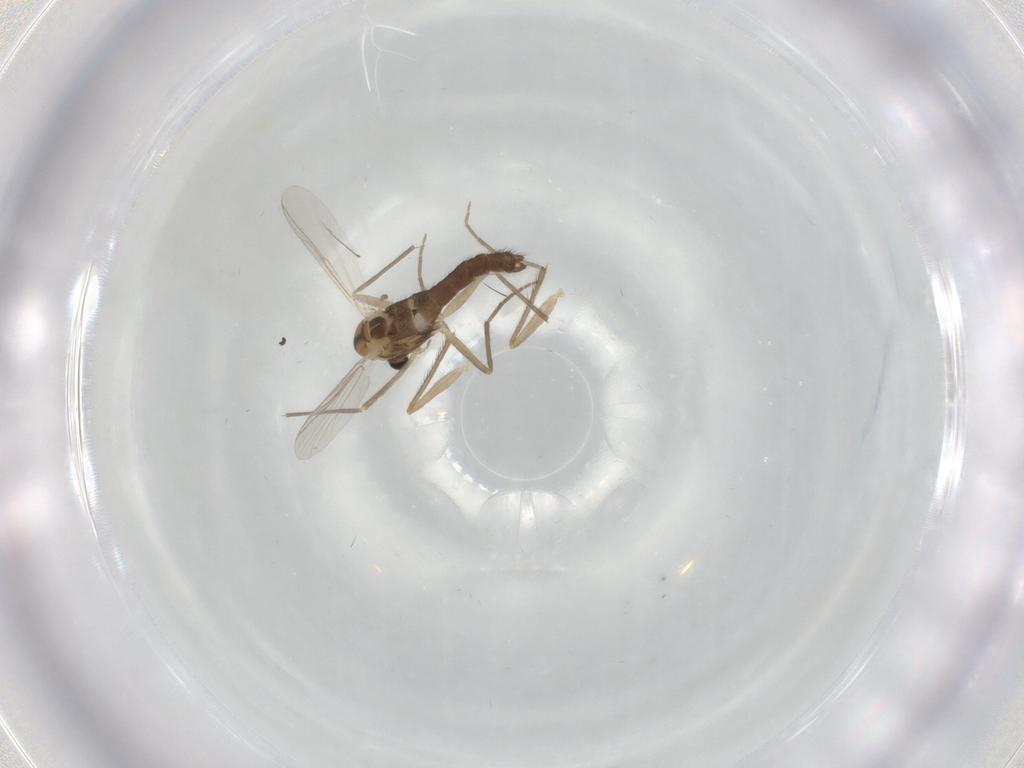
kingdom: Animalia
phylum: Arthropoda
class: Insecta
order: Diptera
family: Chironomidae
